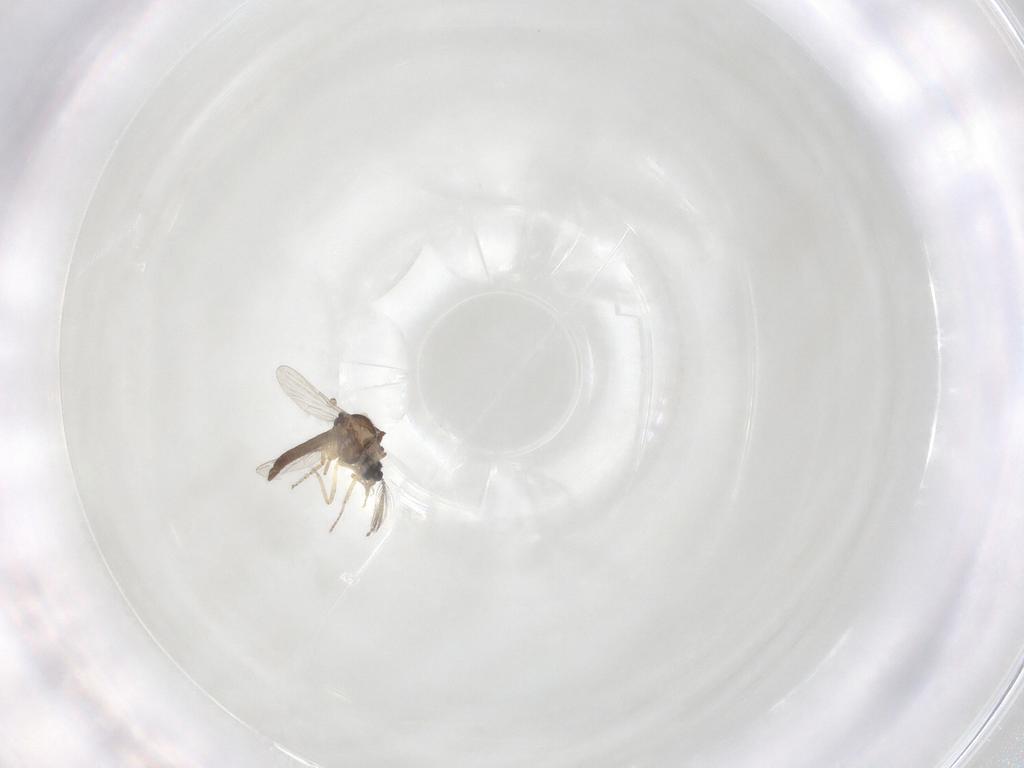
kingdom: Animalia
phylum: Arthropoda
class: Insecta
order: Diptera
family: Ceratopogonidae
